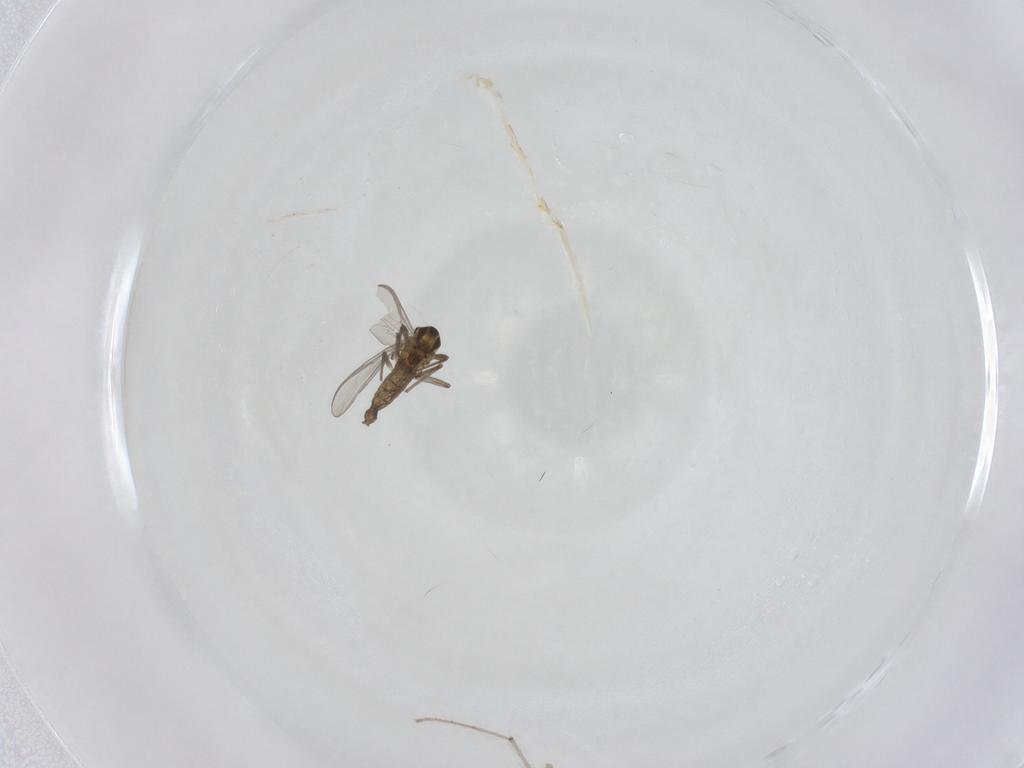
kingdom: Animalia
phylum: Arthropoda
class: Insecta
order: Diptera
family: Chironomidae
